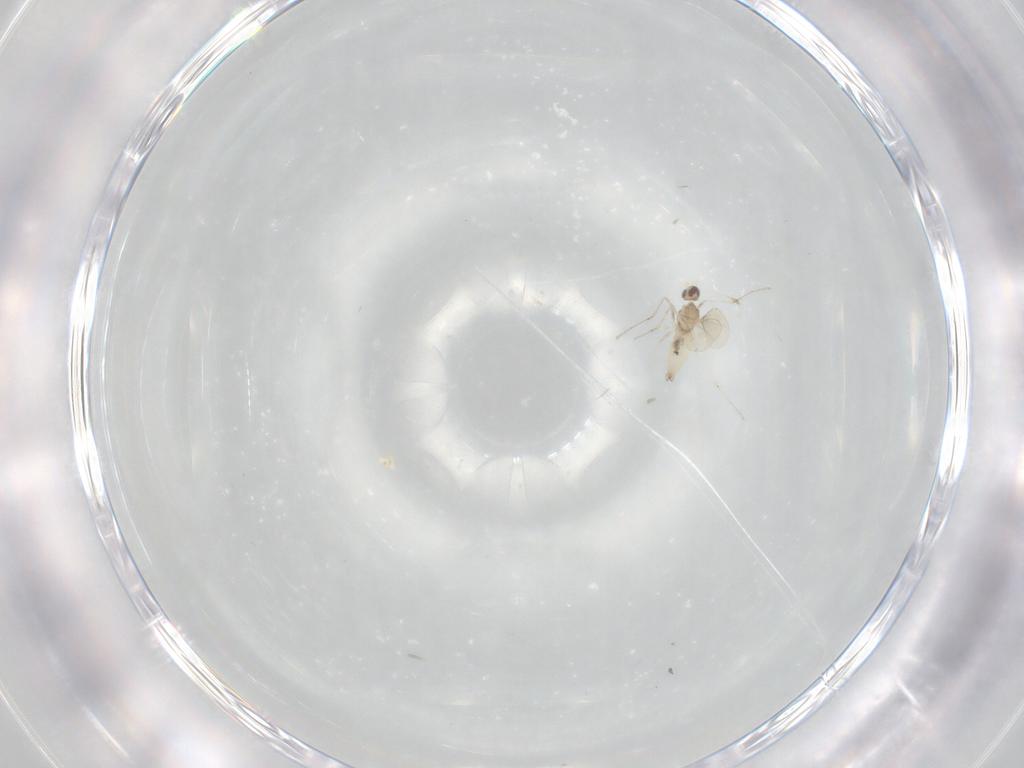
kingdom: Animalia
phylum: Arthropoda
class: Insecta
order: Diptera
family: Cecidomyiidae
